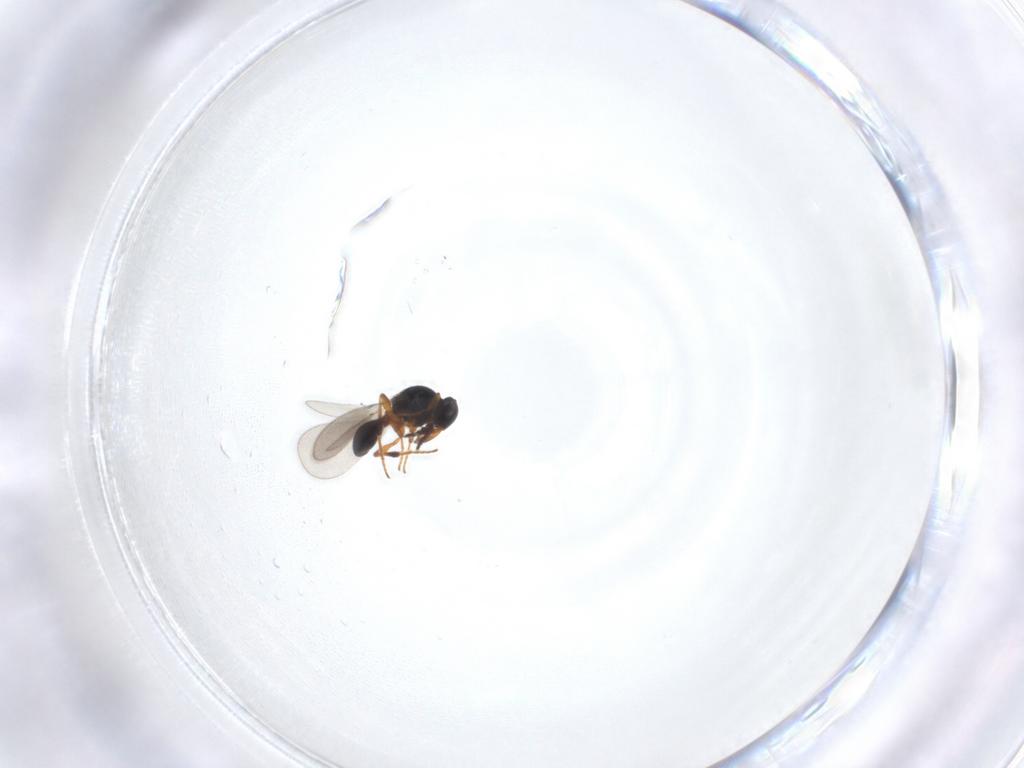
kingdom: Animalia
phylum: Arthropoda
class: Insecta
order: Hymenoptera
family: Platygastridae
